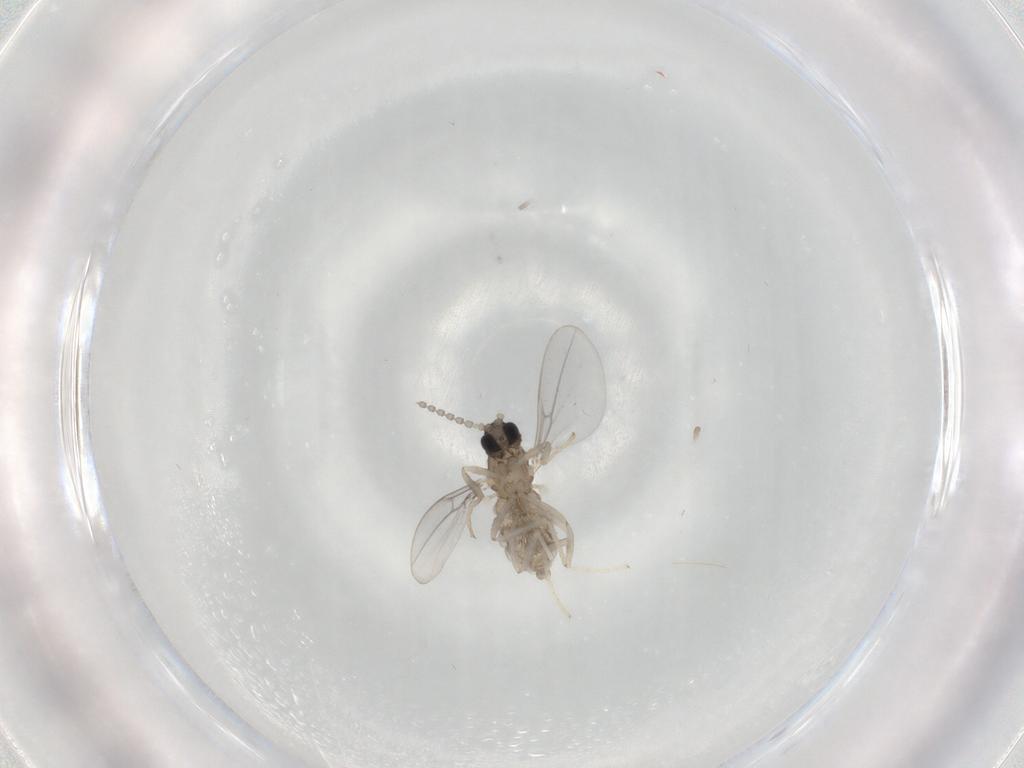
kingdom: Animalia
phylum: Arthropoda
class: Insecta
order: Diptera
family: Cecidomyiidae
